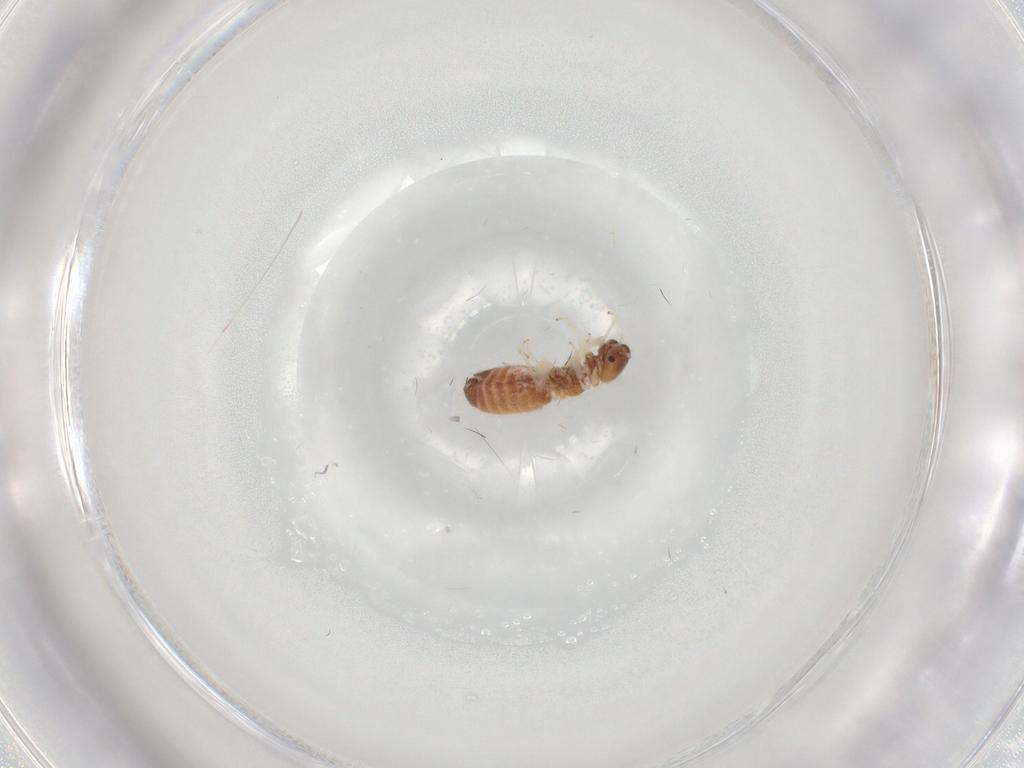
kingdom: Animalia
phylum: Arthropoda
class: Insecta
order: Psocodea
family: Archipsocidae
